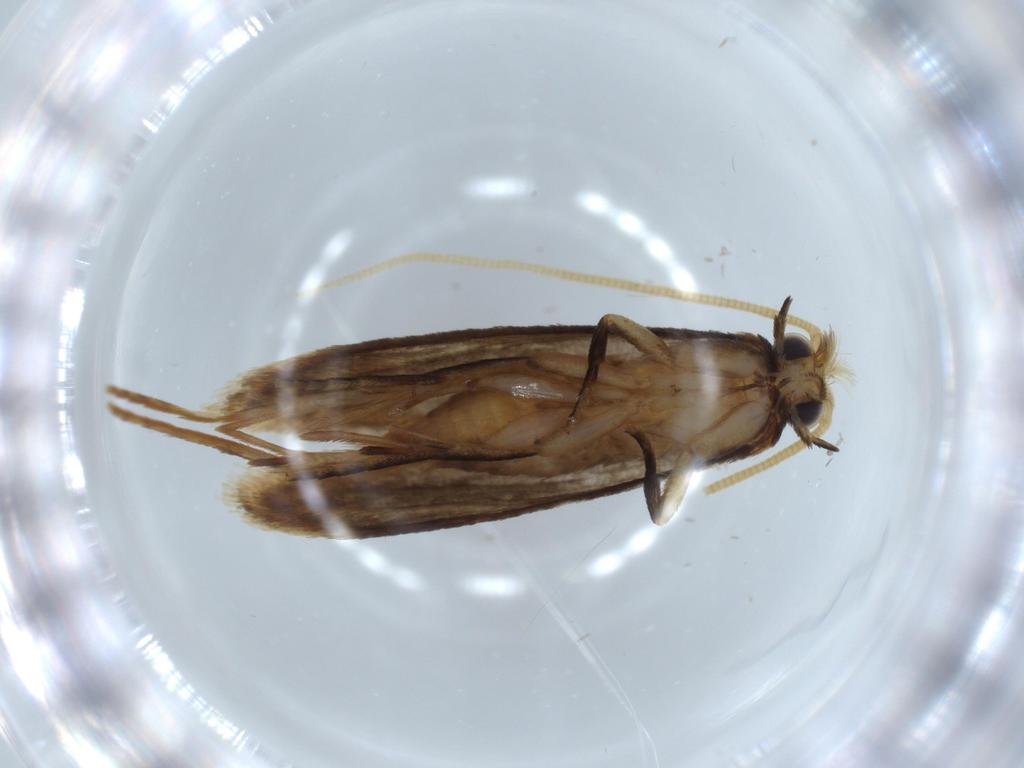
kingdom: Animalia
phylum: Arthropoda
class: Insecta
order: Lepidoptera
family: Tineidae
